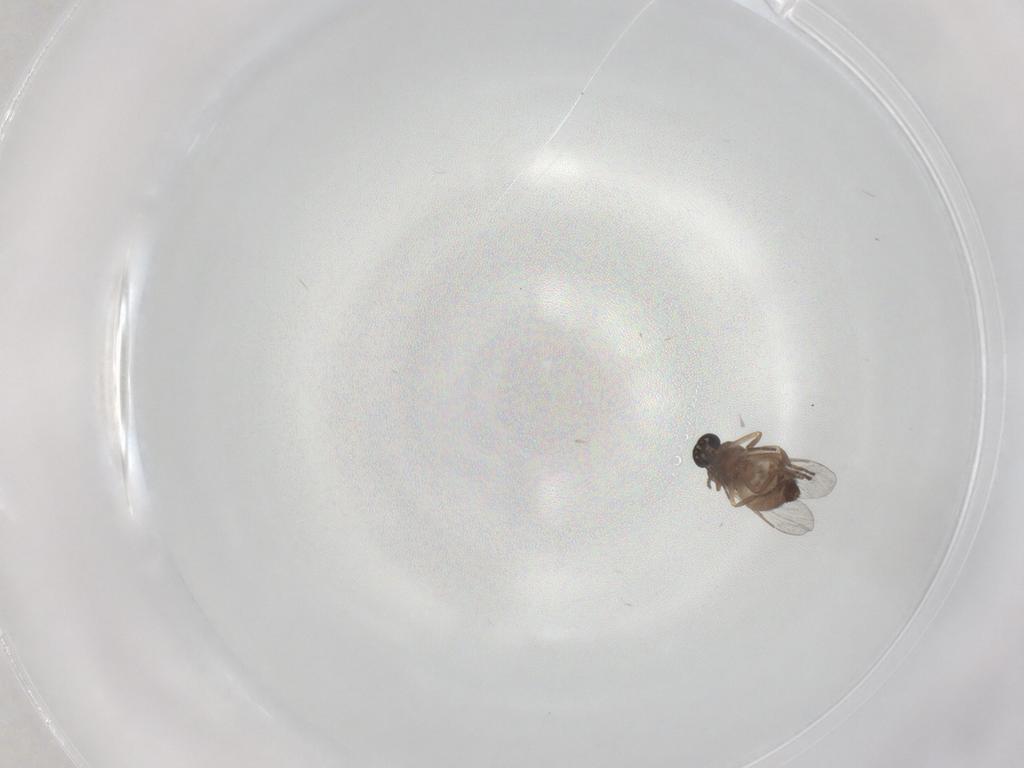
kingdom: Animalia
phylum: Arthropoda
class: Insecta
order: Diptera
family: Ceratopogonidae
